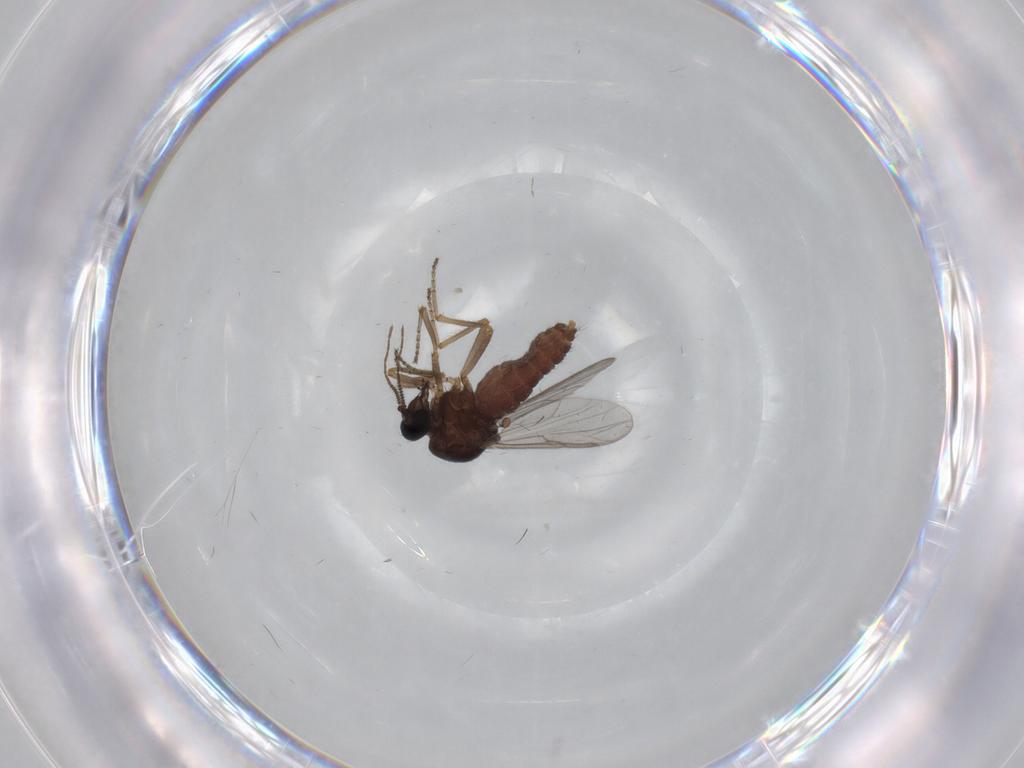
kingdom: Animalia
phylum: Arthropoda
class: Insecta
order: Diptera
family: Ceratopogonidae
